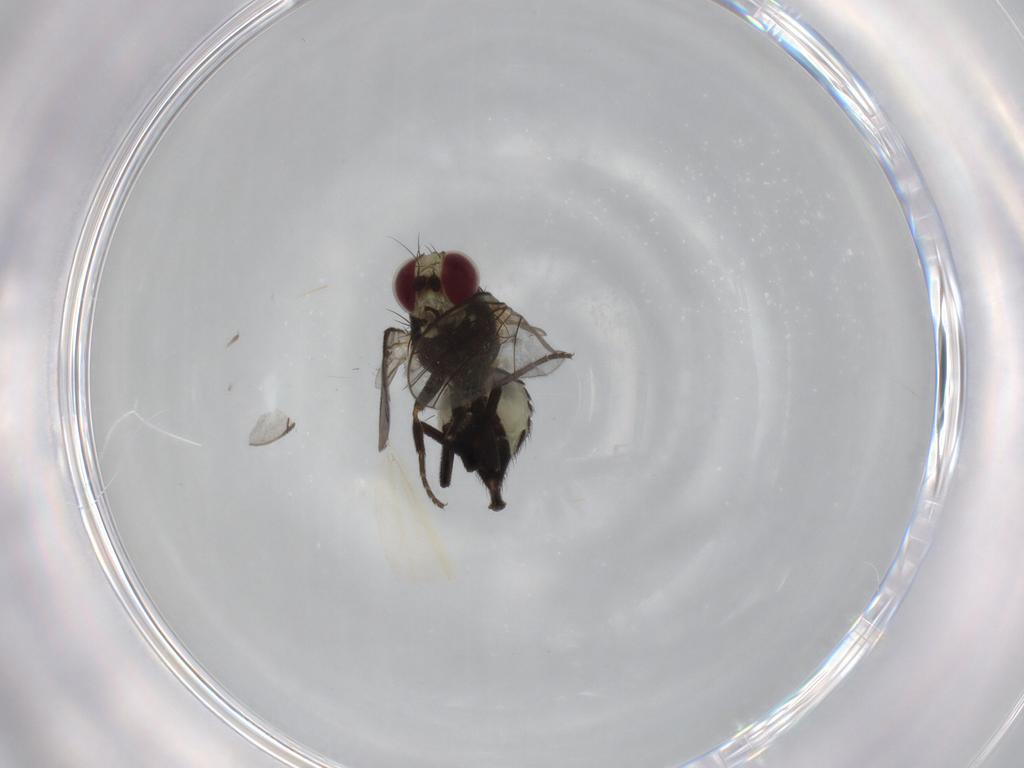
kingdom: Animalia
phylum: Arthropoda
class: Insecta
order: Diptera
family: Agromyzidae
